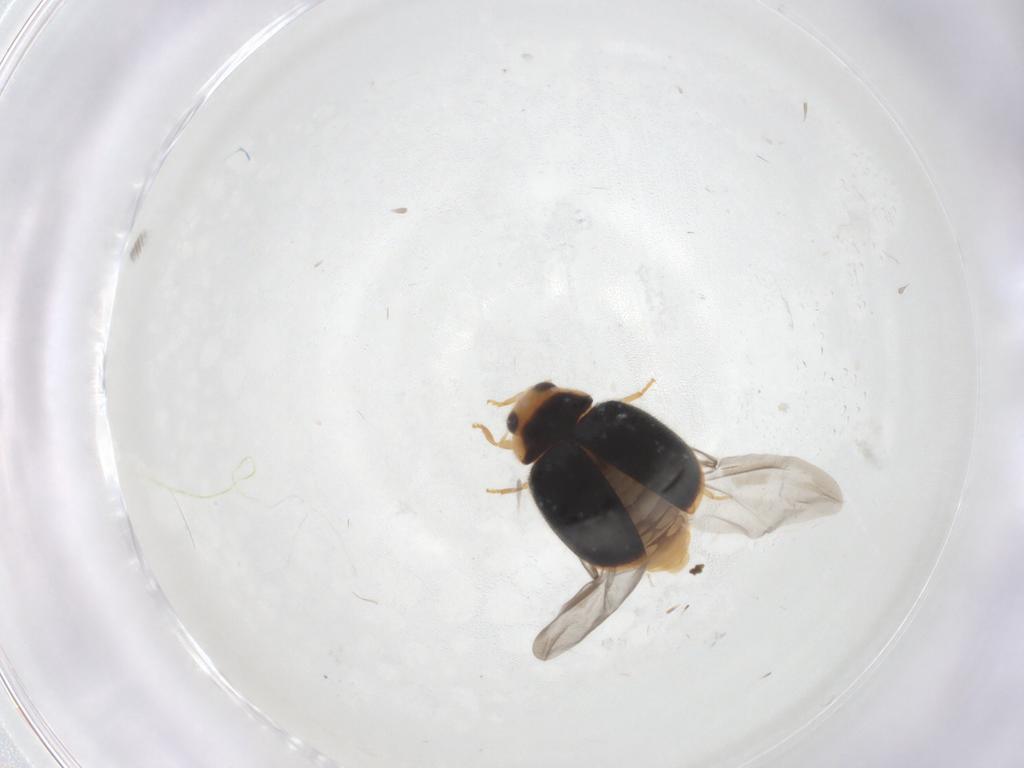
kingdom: Animalia
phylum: Arthropoda
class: Insecta
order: Coleoptera
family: Coccinellidae
